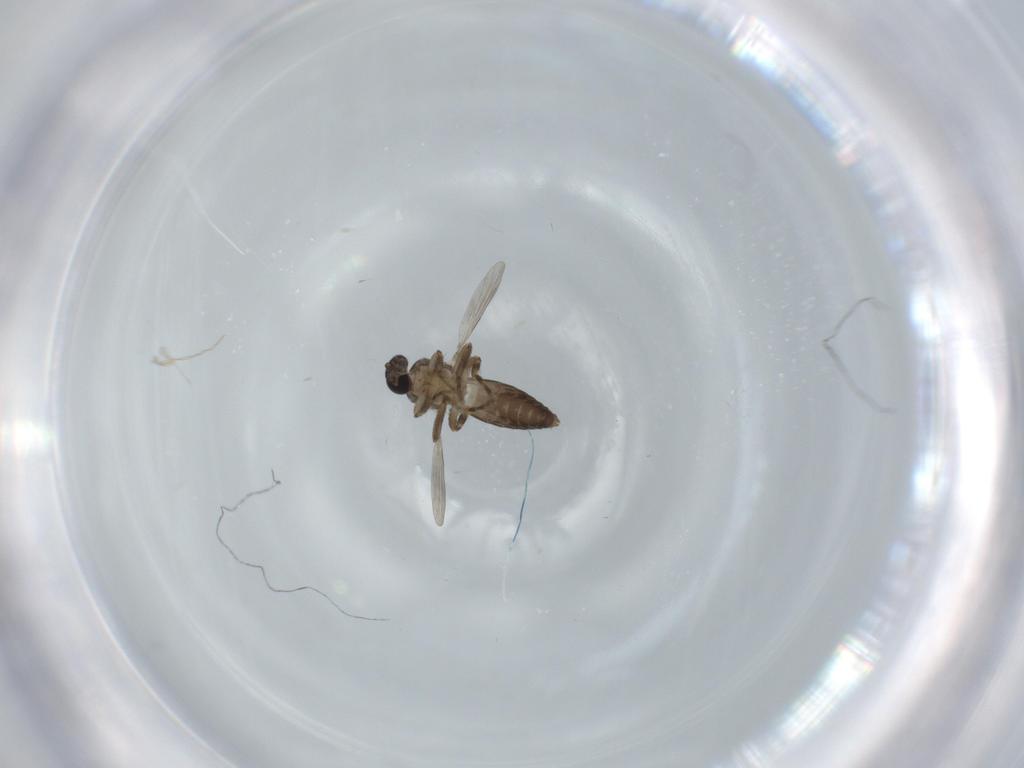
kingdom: Animalia
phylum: Arthropoda
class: Insecta
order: Diptera
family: Ceratopogonidae
